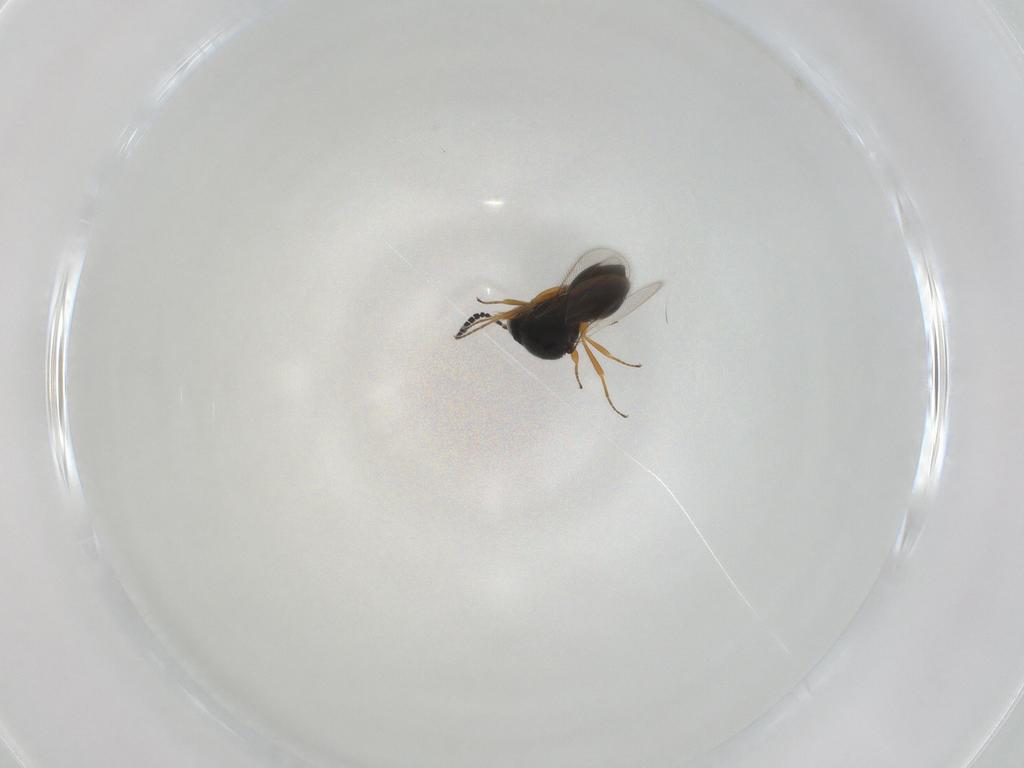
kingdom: Animalia
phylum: Arthropoda
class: Insecta
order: Hymenoptera
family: Scelionidae
